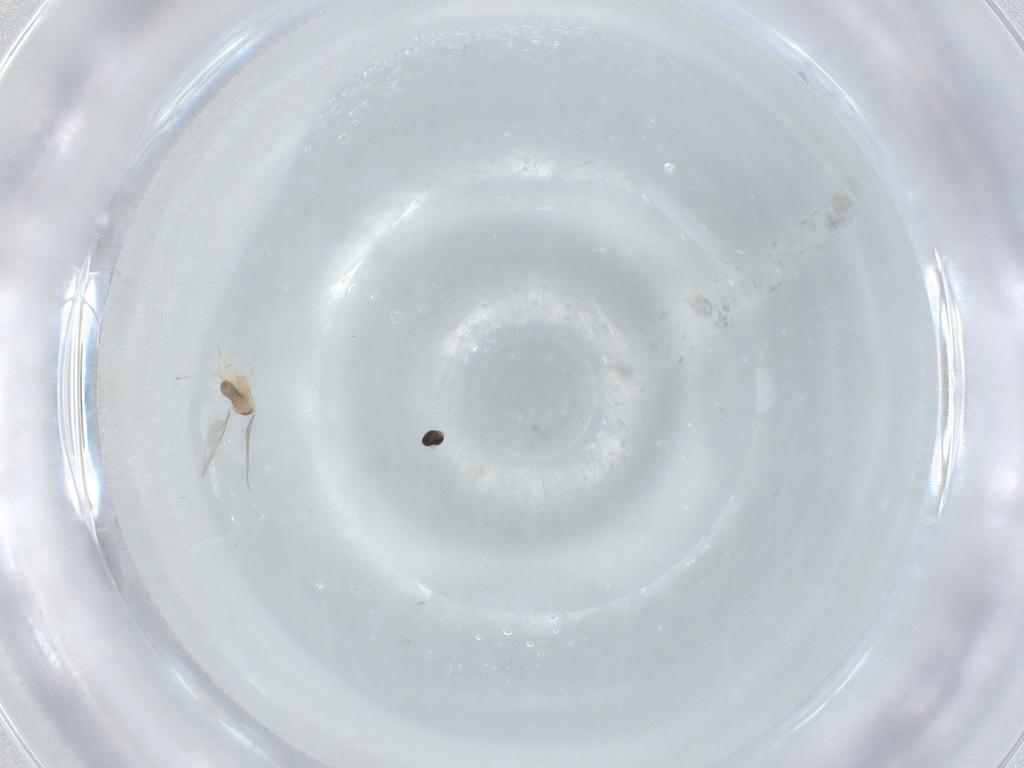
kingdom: Animalia
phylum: Arthropoda
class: Insecta
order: Diptera
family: Cecidomyiidae
